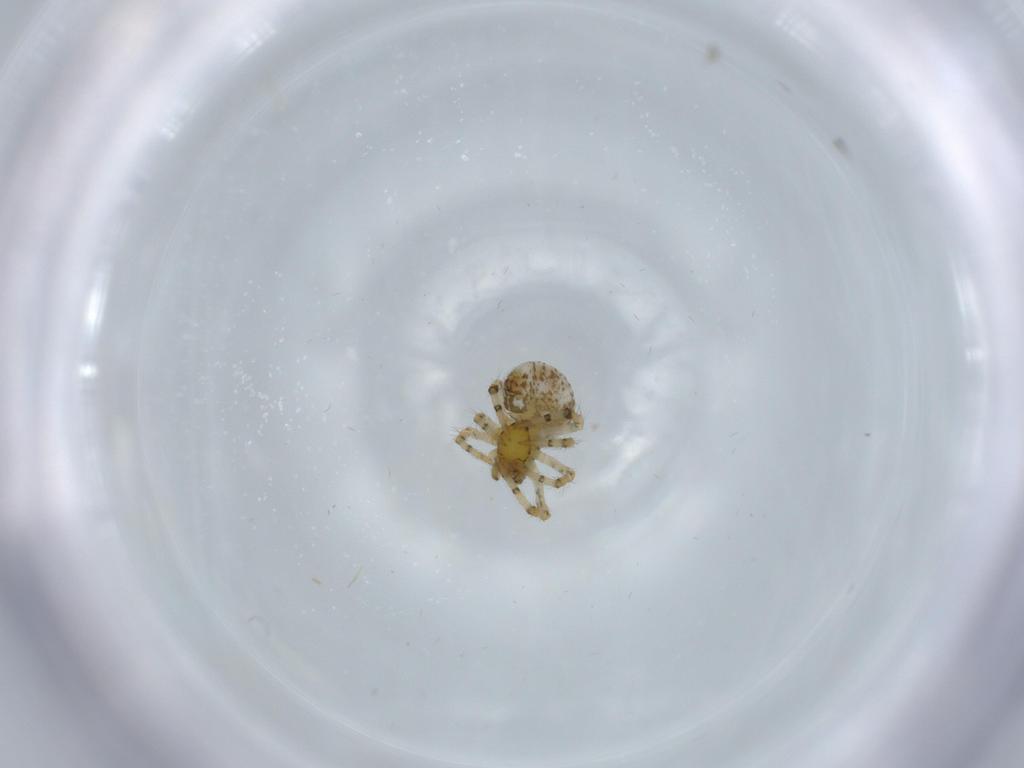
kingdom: Animalia
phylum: Arthropoda
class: Arachnida
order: Araneae
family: Theridiidae
